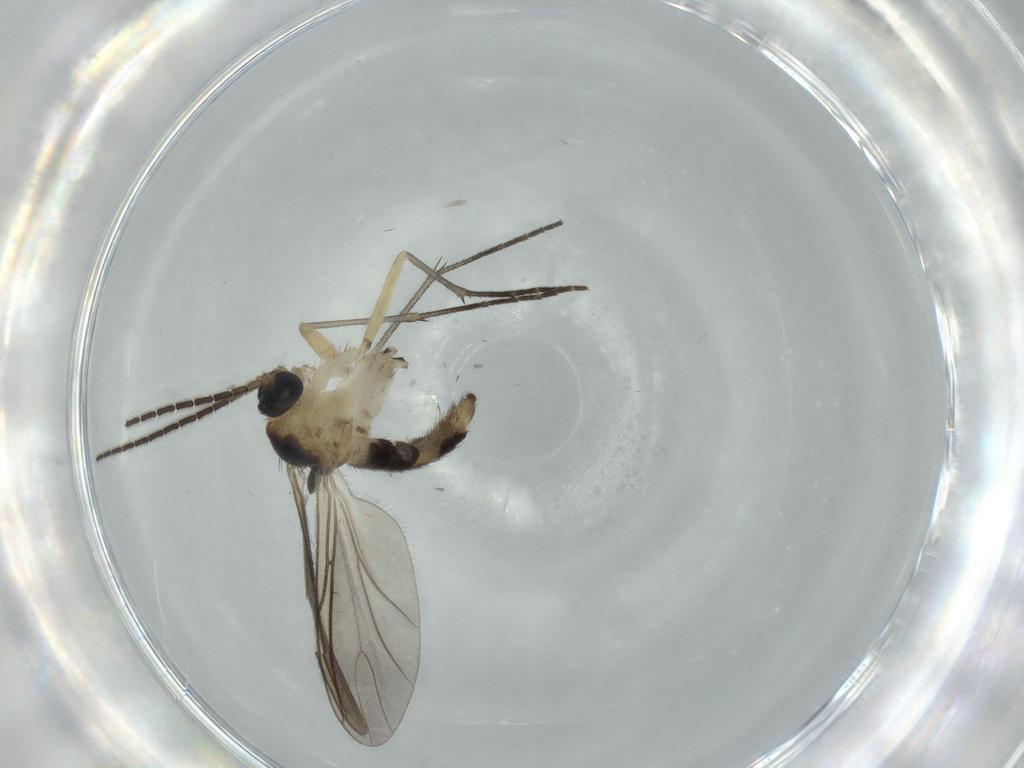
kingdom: Animalia
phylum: Arthropoda
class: Insecta
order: Diptera
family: Sciaridae
